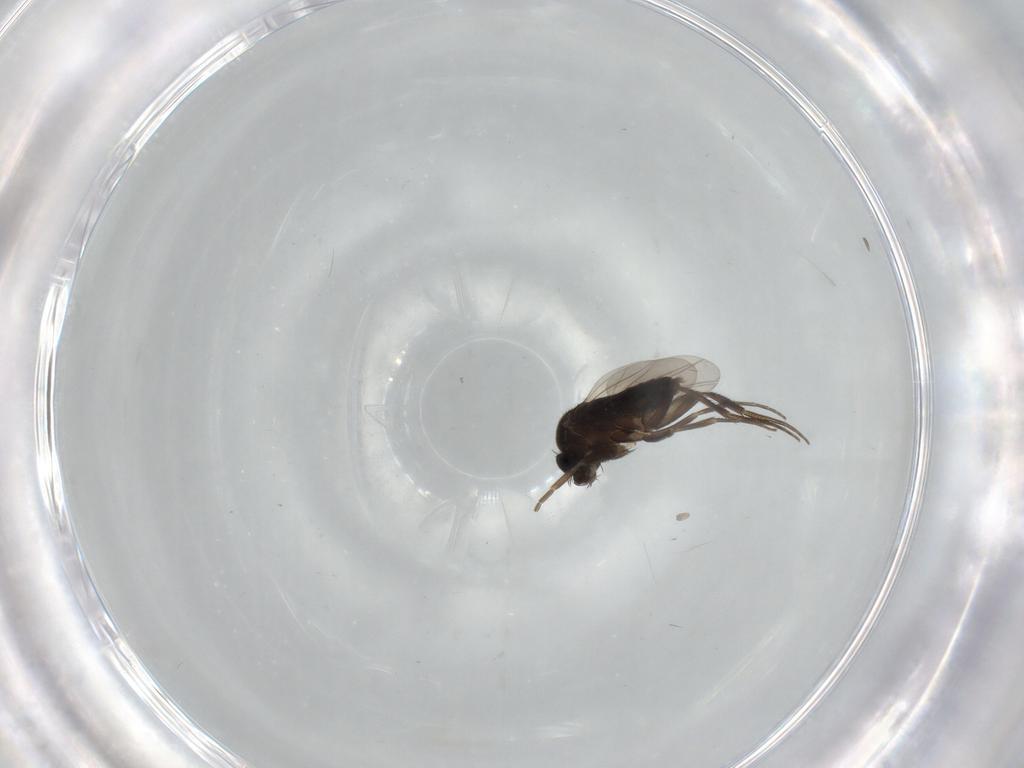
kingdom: Animalia
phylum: Arthropoda
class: Insecta
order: Diptera
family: Phoridae
